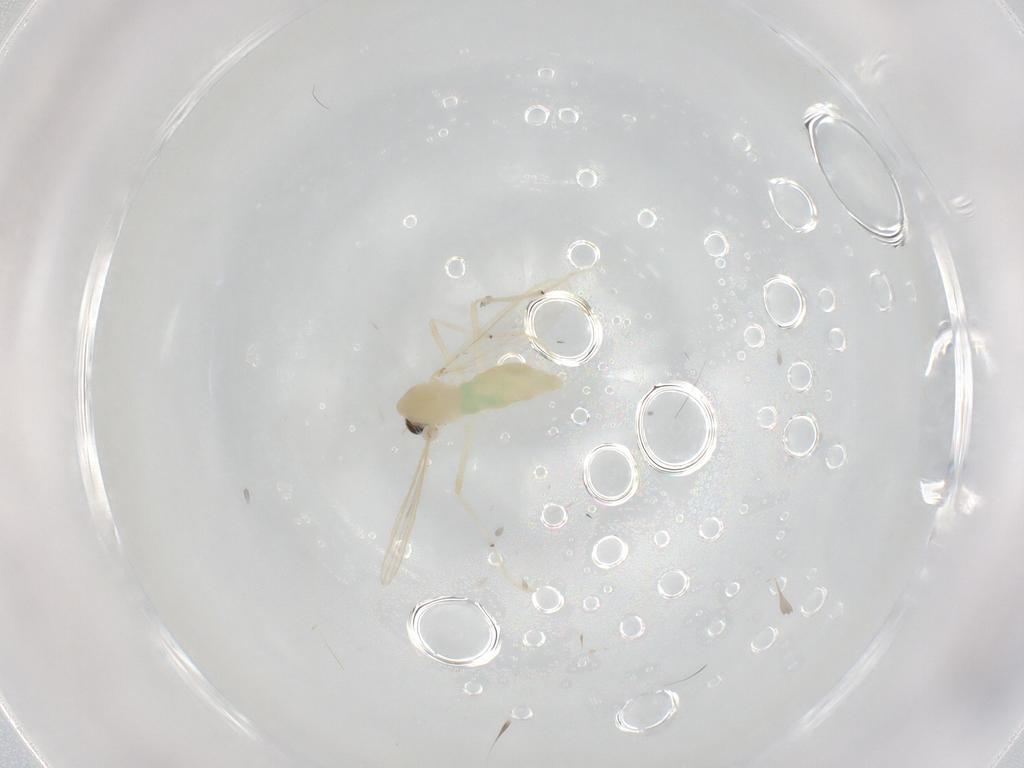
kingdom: Animalia
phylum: Arthropoda
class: Insecta
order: Diptera
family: Chironomidae
